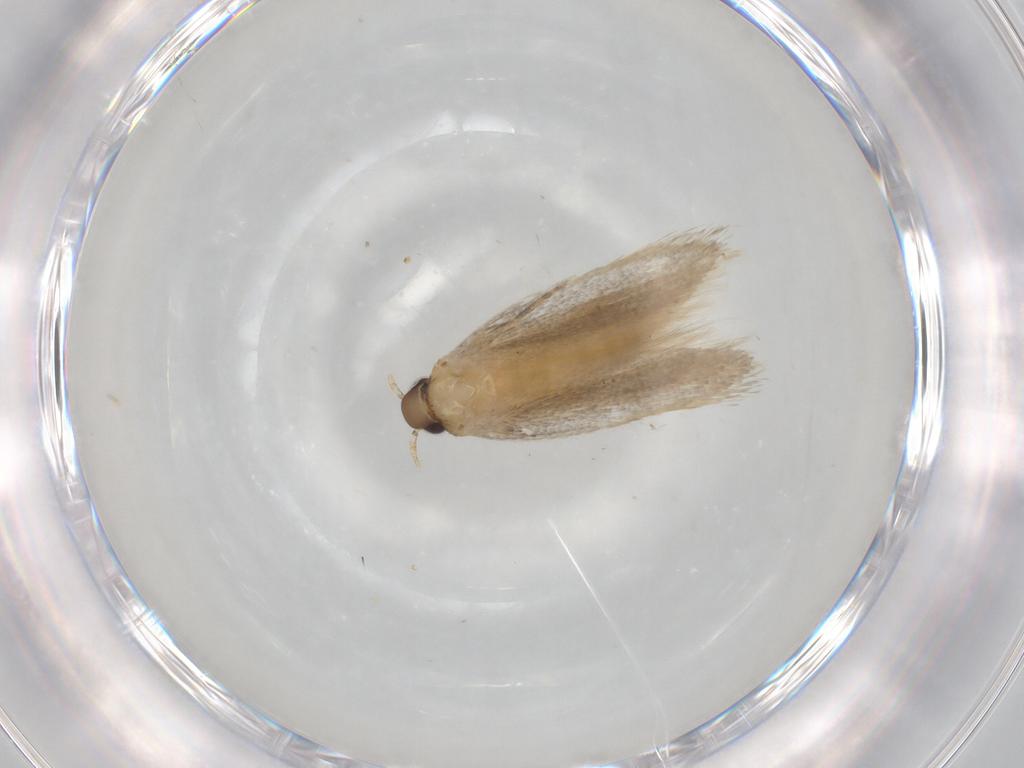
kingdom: Animalia
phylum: Arthropoda
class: Insecta
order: Lepidoptera
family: Autostichidae
